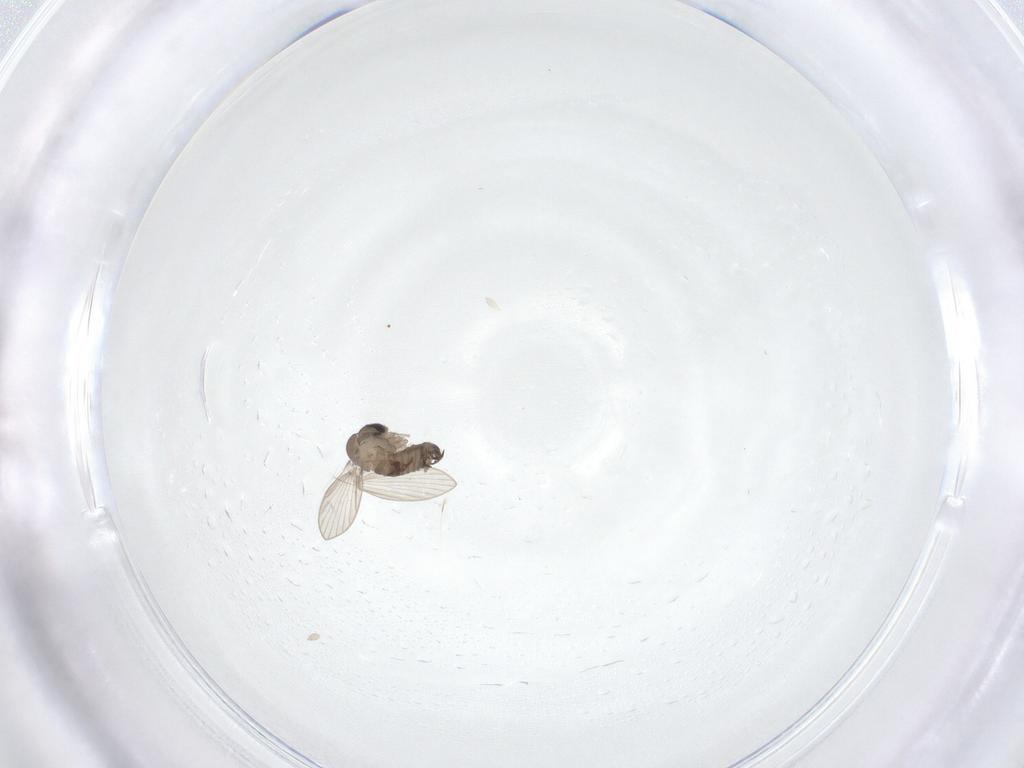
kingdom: Animalia
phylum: Arthropoda
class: Insecta
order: Diptera
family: Psychodidae
